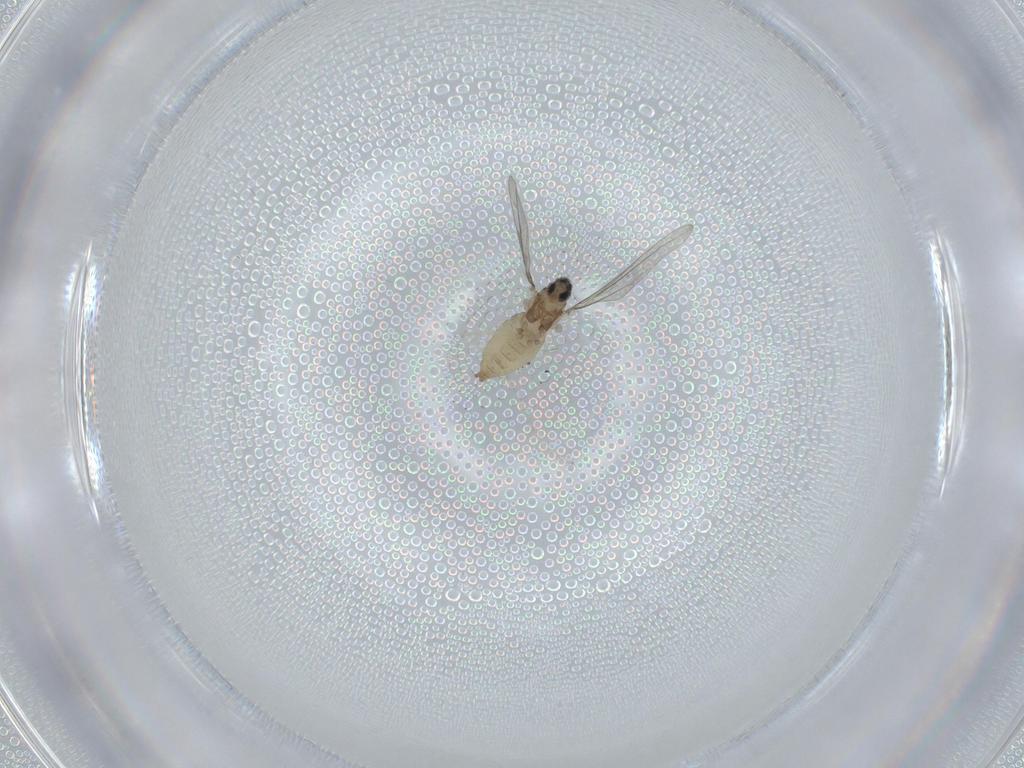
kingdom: Animalia
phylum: Arthropoda
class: Insecta
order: Diptera
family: Cecidomyiidae
